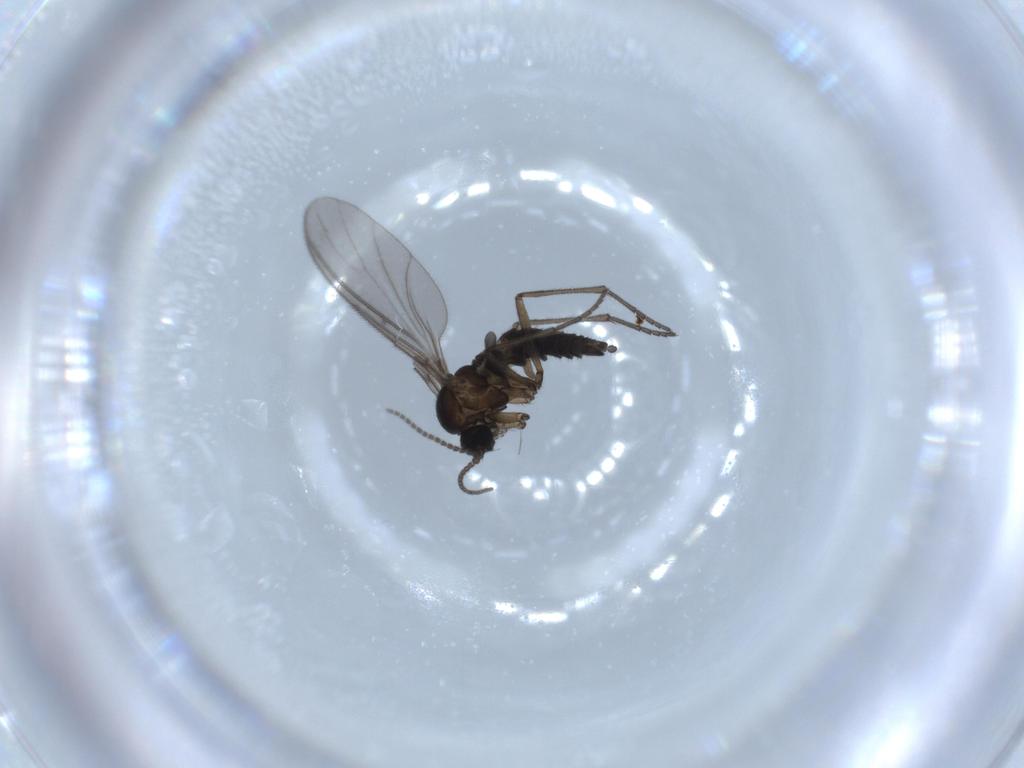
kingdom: Animalia
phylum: Arthropoda
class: Insecta
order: Diptera
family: Sciaridae
